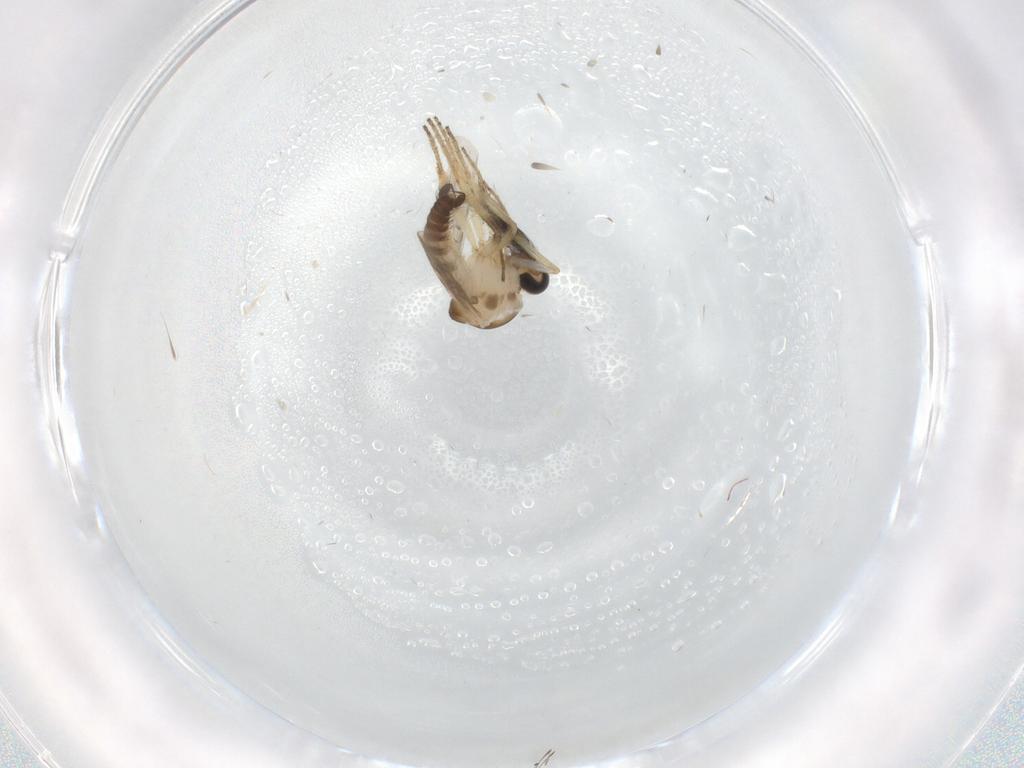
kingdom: Animalia
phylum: Arthropoda
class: Insecta
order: Diptera
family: Ceratopogonidae
